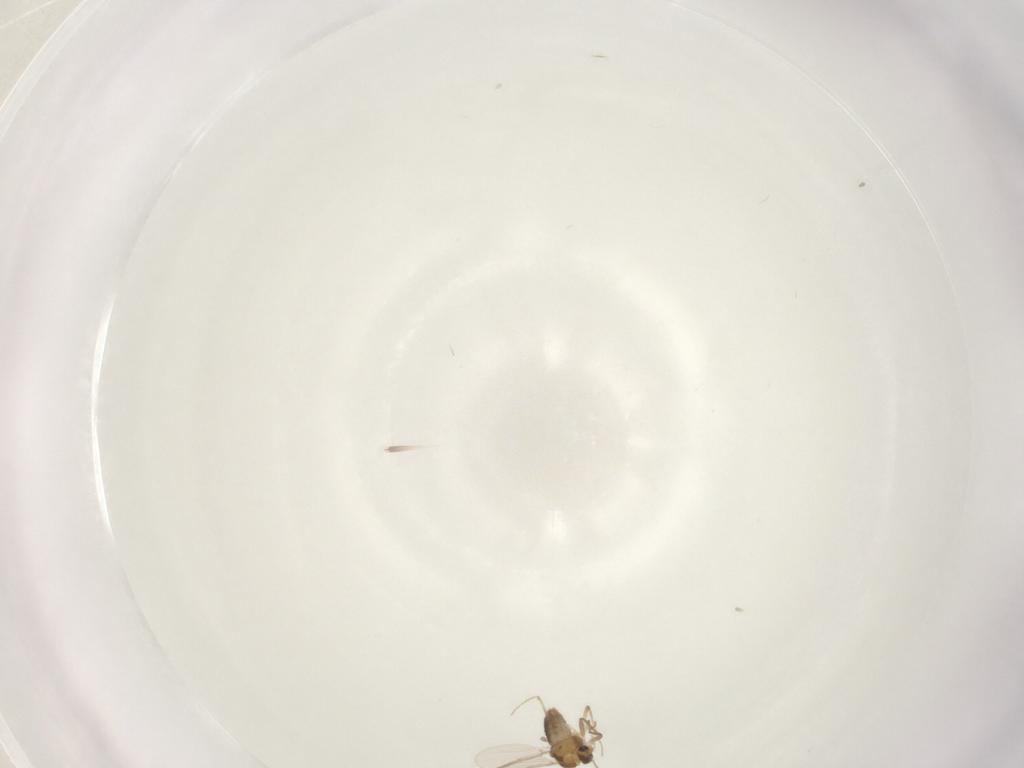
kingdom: Animalia
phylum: Arthropoda
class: Insecta
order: Diptera
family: Chironomidae
